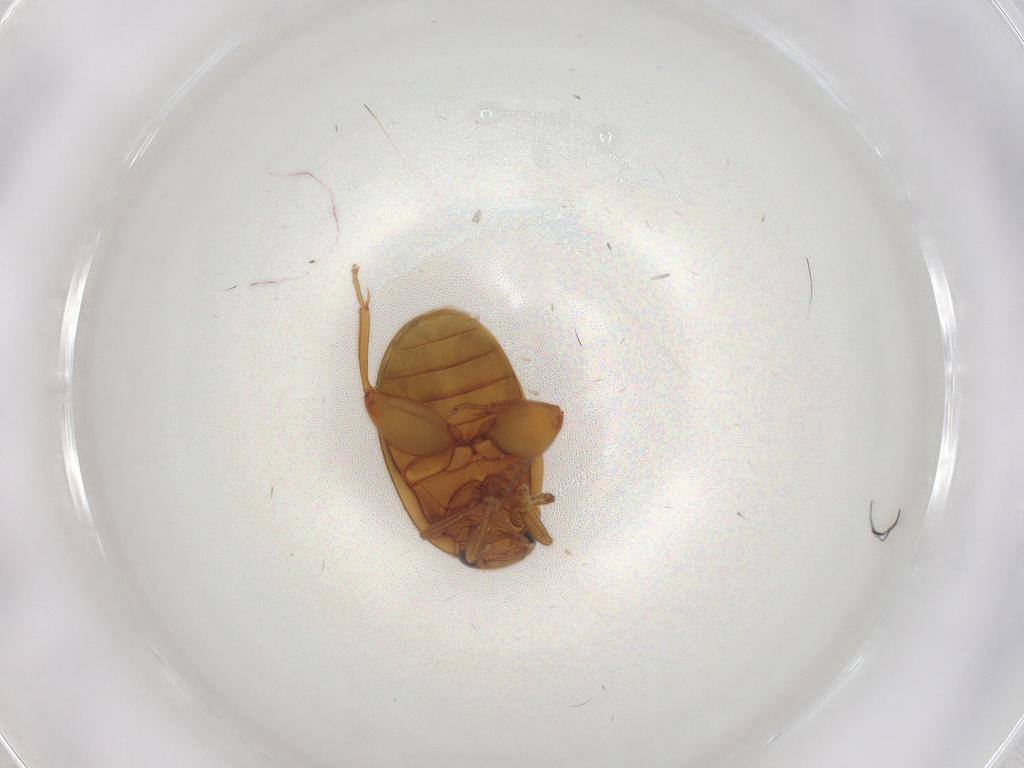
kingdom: Animalia
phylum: Arthropoda
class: Insecta
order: Coleoptera
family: Scirtidae
